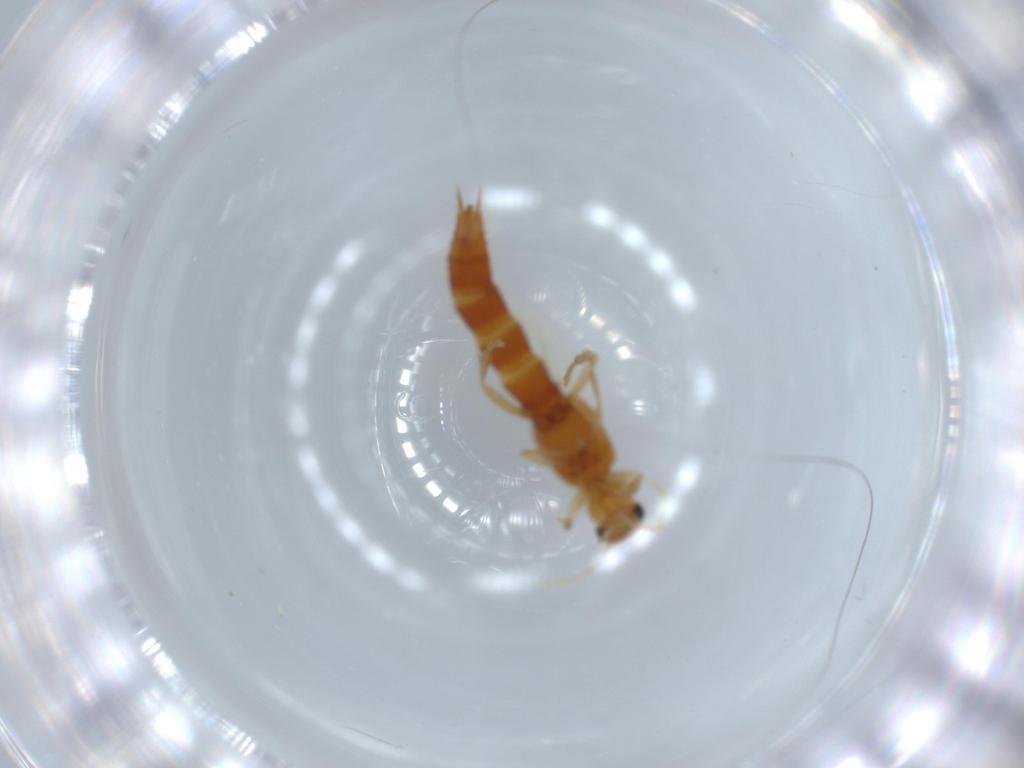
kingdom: Animalia
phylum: Arthropoda
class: Insecta
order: Coleoptera
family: Staphylinidae
